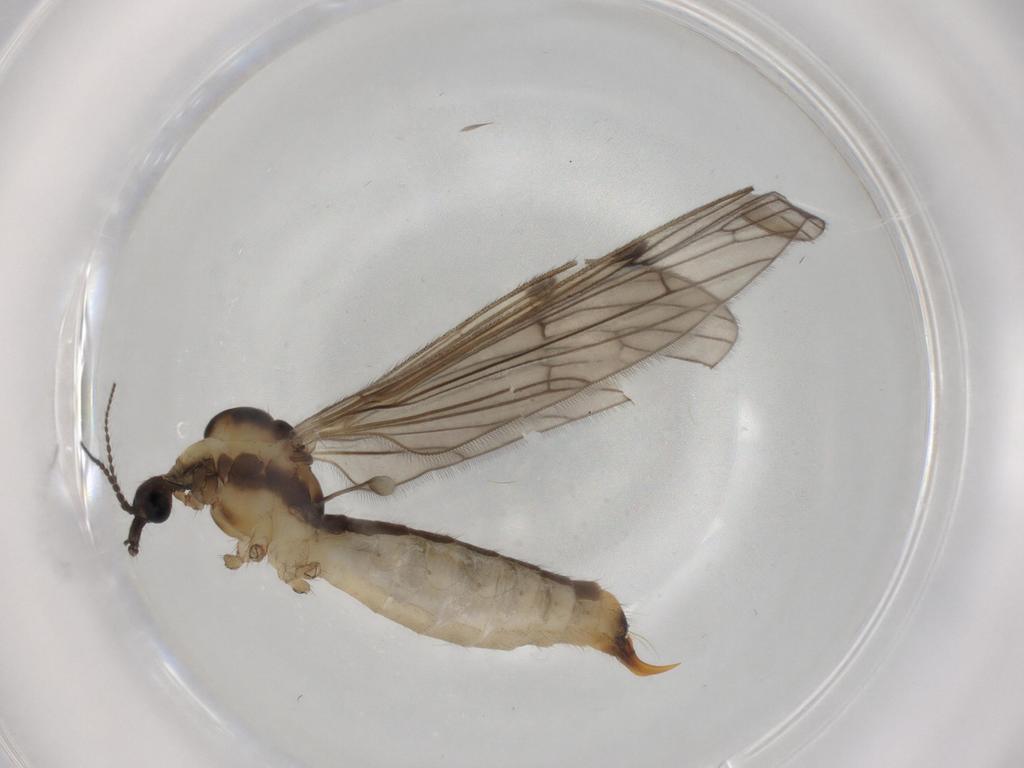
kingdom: Animalia
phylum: Arthropoda
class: Insecta
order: Diptera
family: Limoniidae
